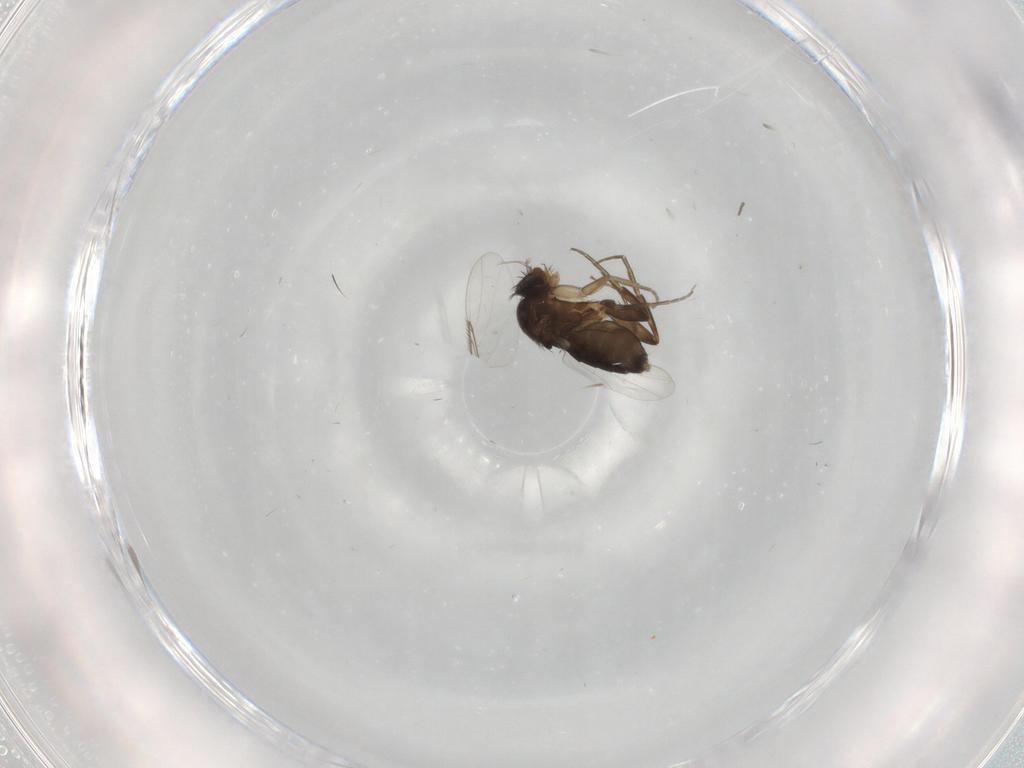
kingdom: Animalia
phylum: Arthropoda
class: Insecta
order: Diptera
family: Phoridae
